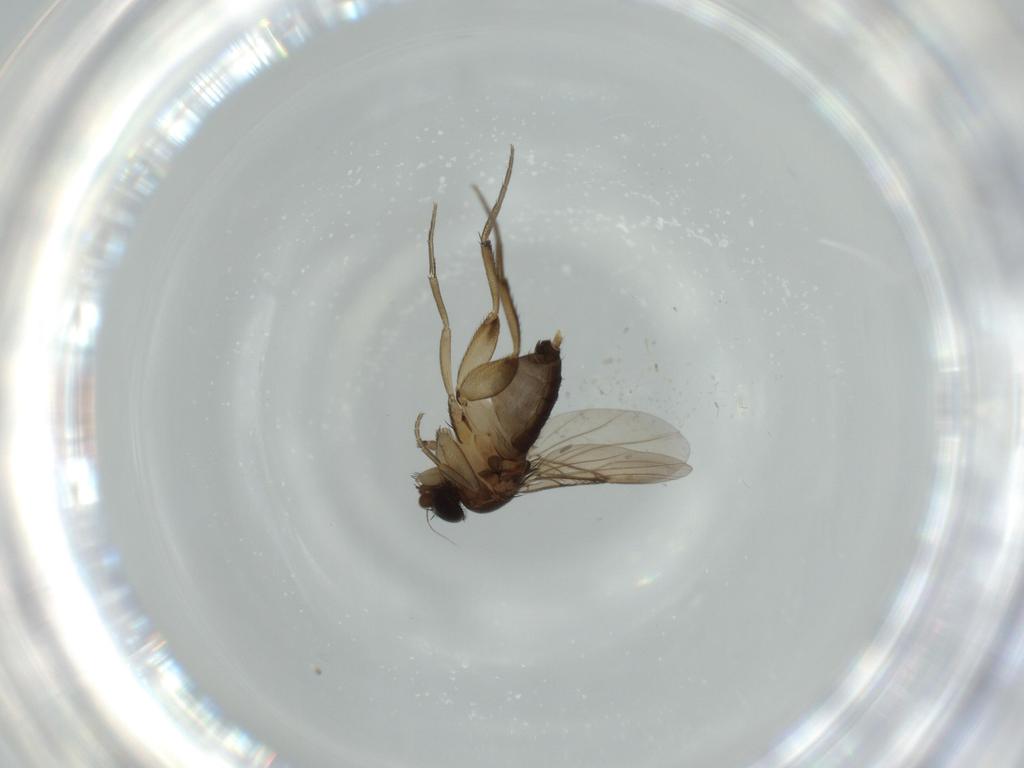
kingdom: Animalia
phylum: Arthropoda
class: Insecta
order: Diptera
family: Phoridae
